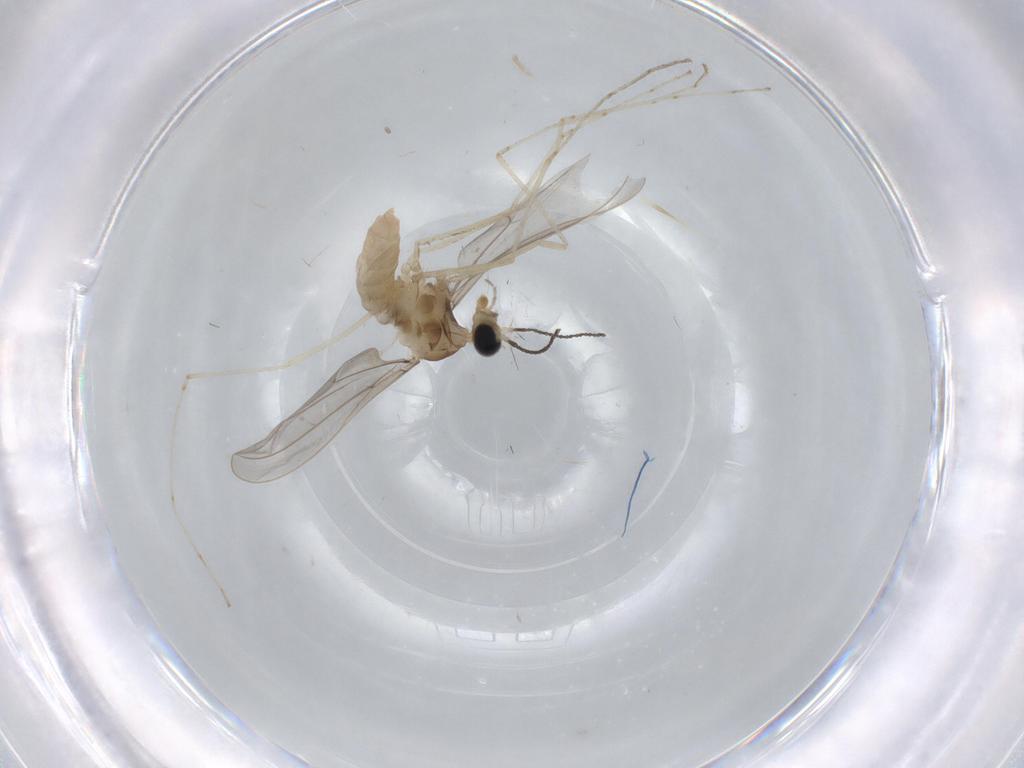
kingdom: Animalia
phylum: Arthropoda
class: Insecta
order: Diptera
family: Cecidomyiidae
